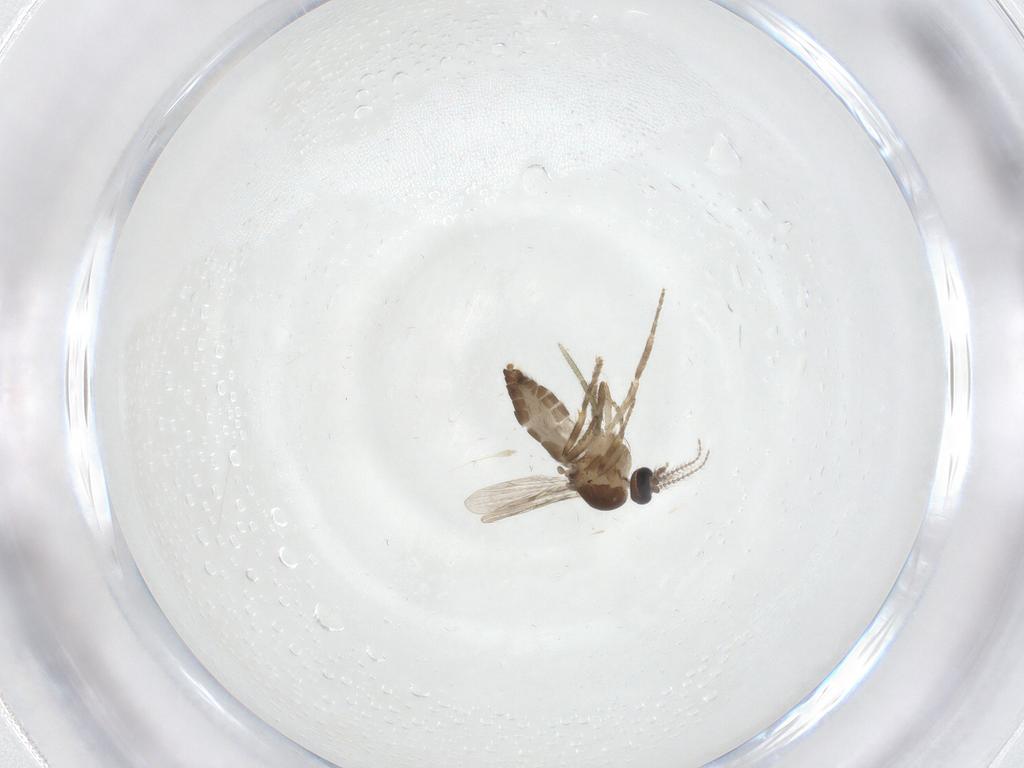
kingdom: Animalia
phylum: Arthropoda
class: Insecta
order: Diptera
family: Ceratopogonidae
